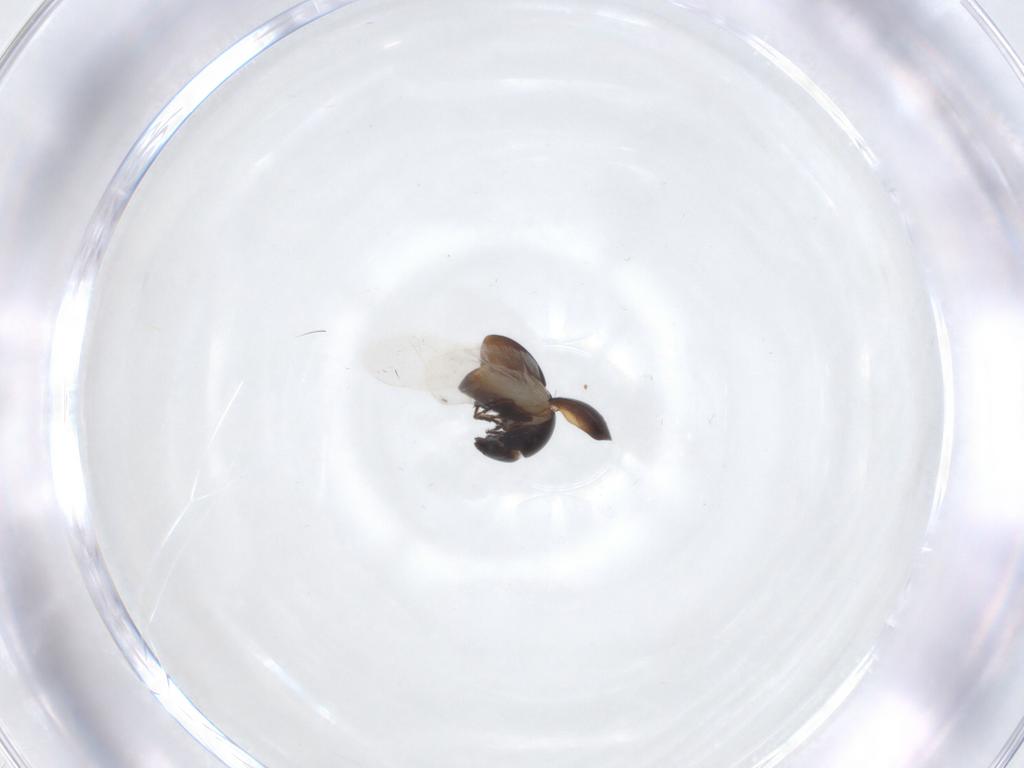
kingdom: Animalia
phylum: Arthropoda
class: Insecta
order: Coleoptera
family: Cybocephalidae
